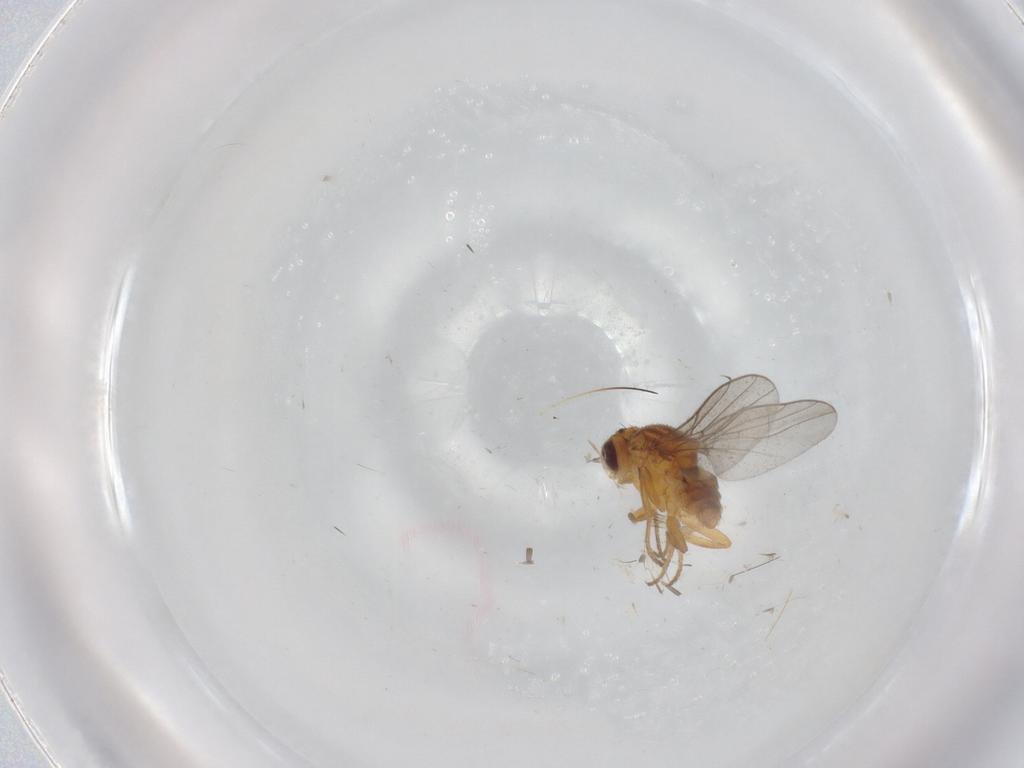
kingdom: Animalia
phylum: Arthropoda
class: Insecta
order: Diptera
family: Chloropidae
